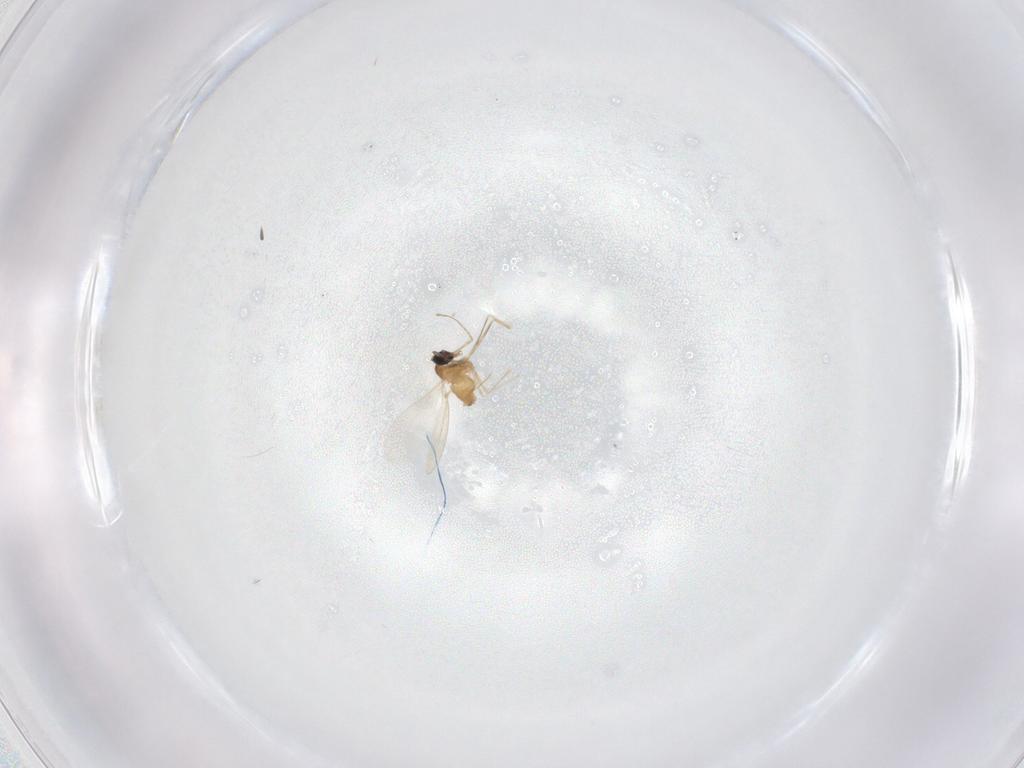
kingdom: Animalia
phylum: Arthropoda
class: Insecta
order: Diptera
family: Cecidomyiidae
